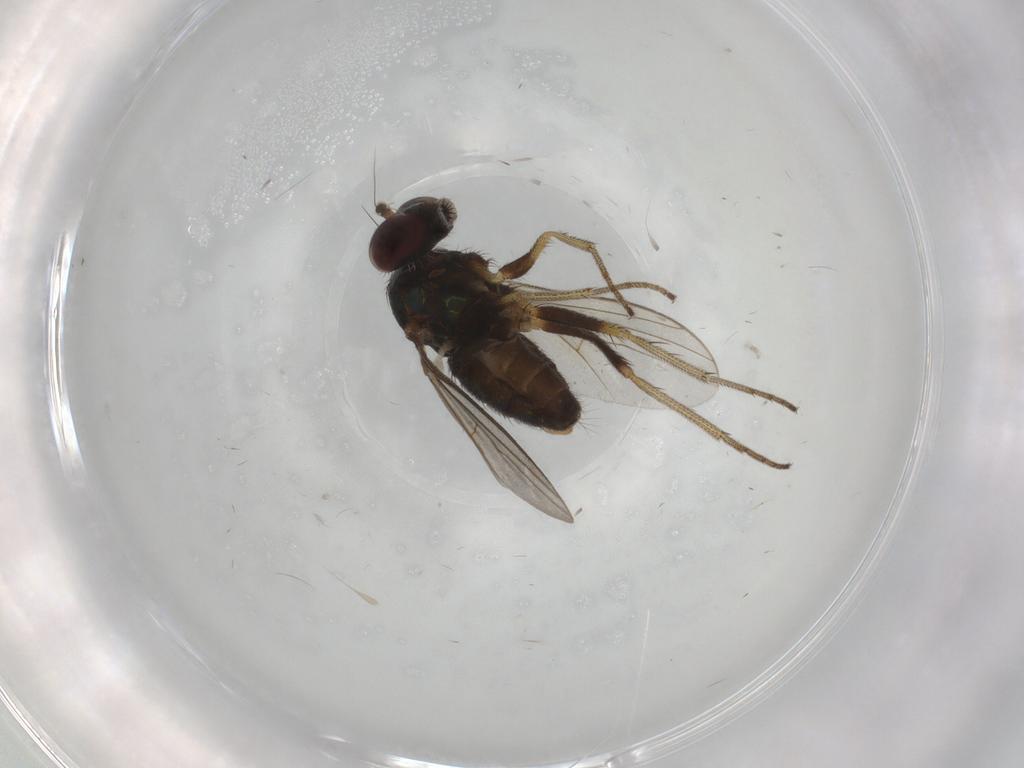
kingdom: Animalia
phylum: Arthropoda
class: Insecta
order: Diptera
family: Dolichopodidae
